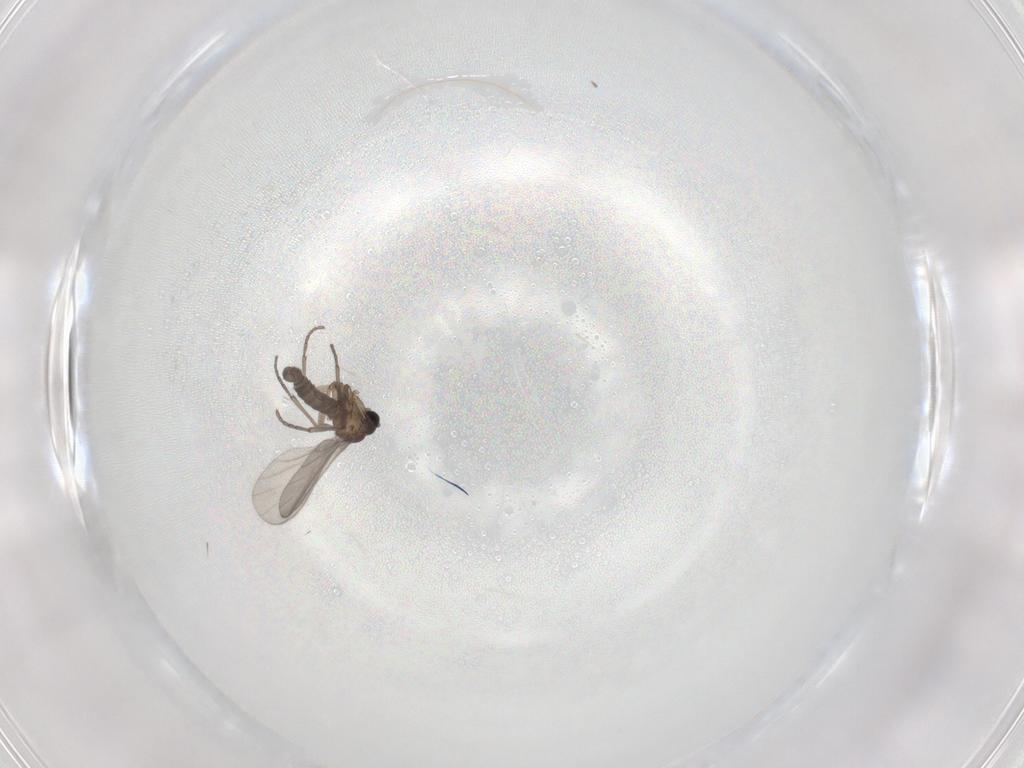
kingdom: Animalia
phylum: Arthropoda
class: Insecta
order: Diptera
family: Sciaridae
